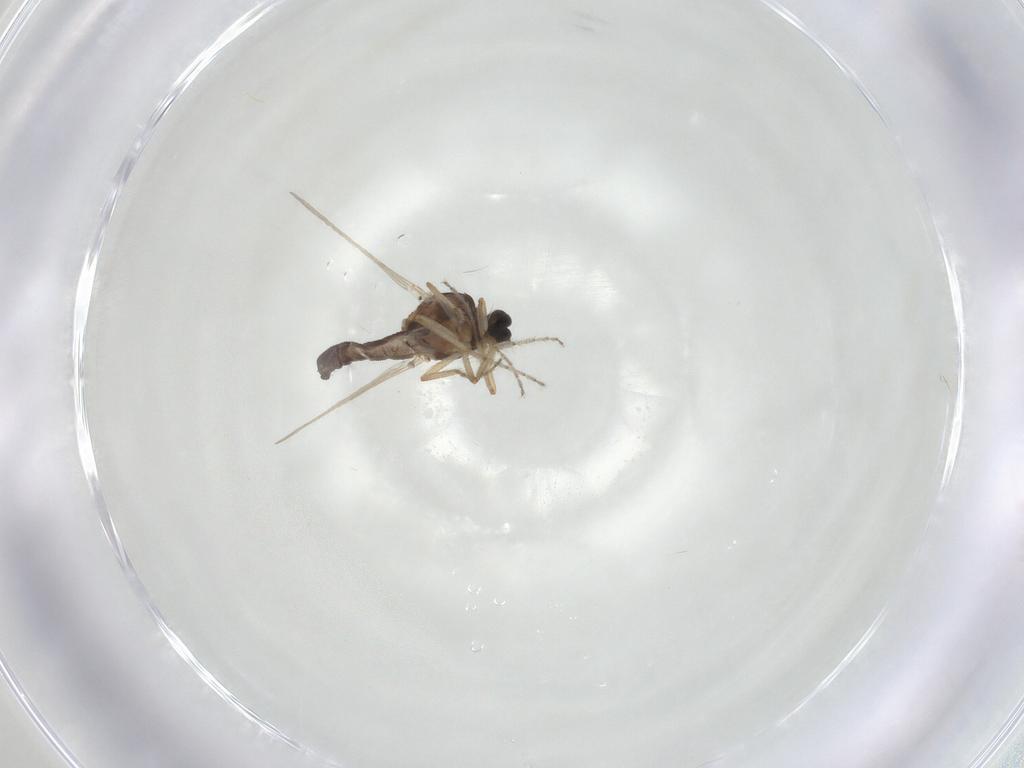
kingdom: Animalia
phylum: Arthropoda
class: Insecta
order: Diptera
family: Ceratopogonidae
